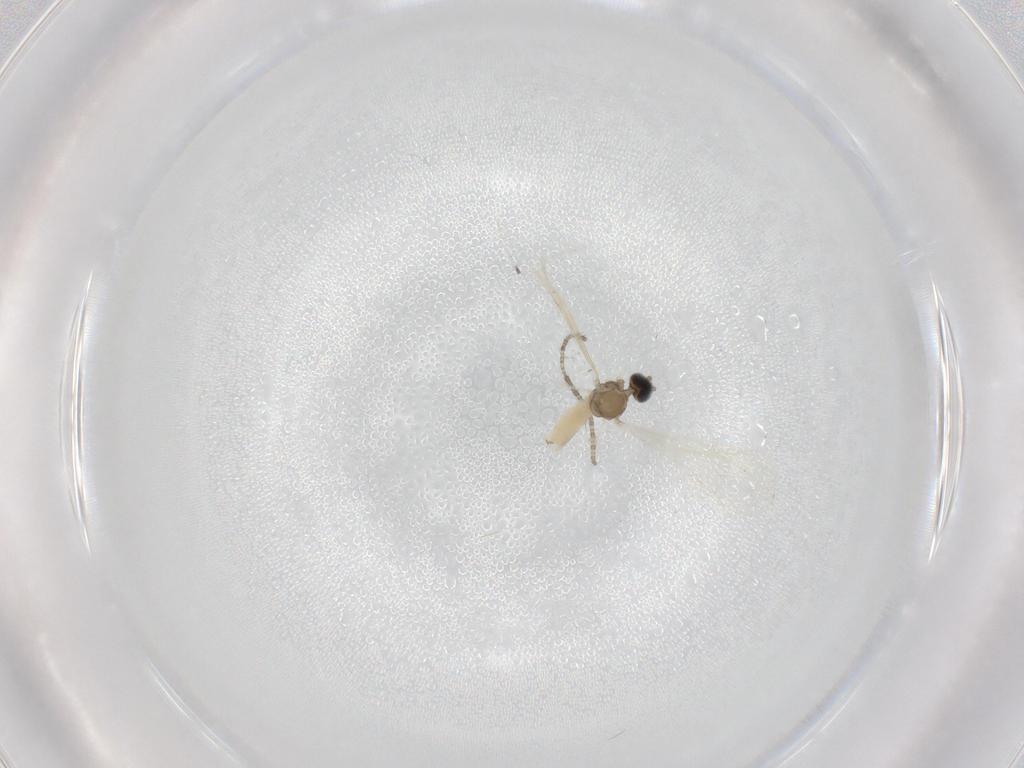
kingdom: Animalia
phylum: Arthropoda
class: Insecta
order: Diptera
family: Cecidomyiidae
